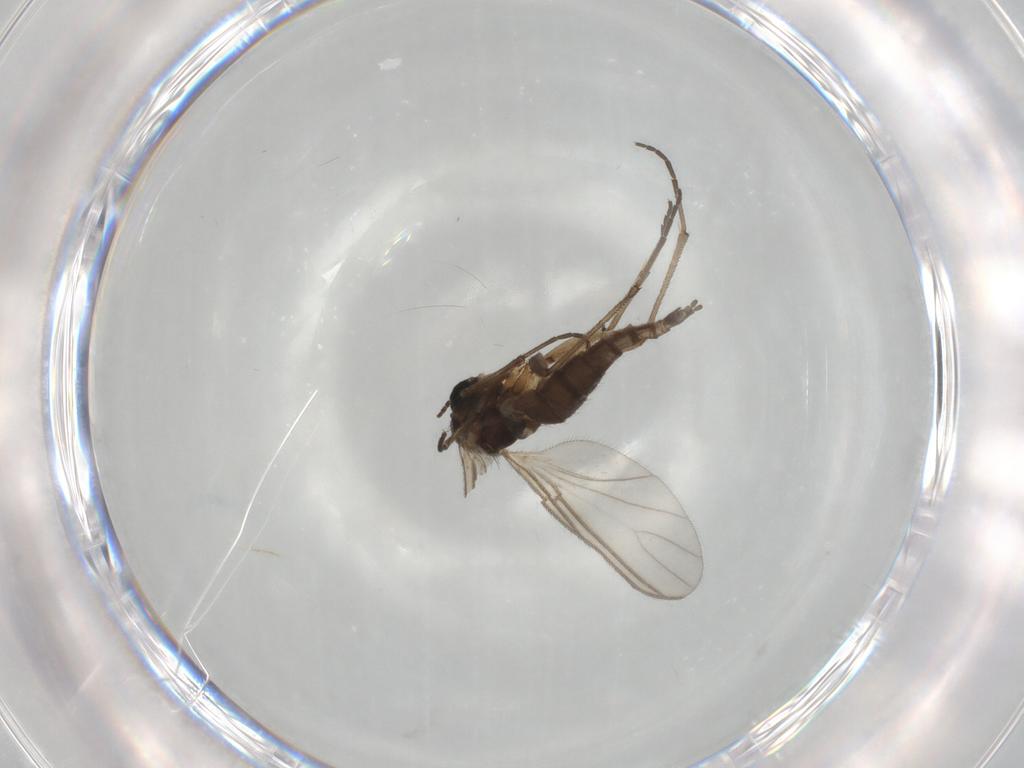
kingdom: Animalia
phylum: Arthropoda
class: Insecta
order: Diptera
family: Sciaridae
